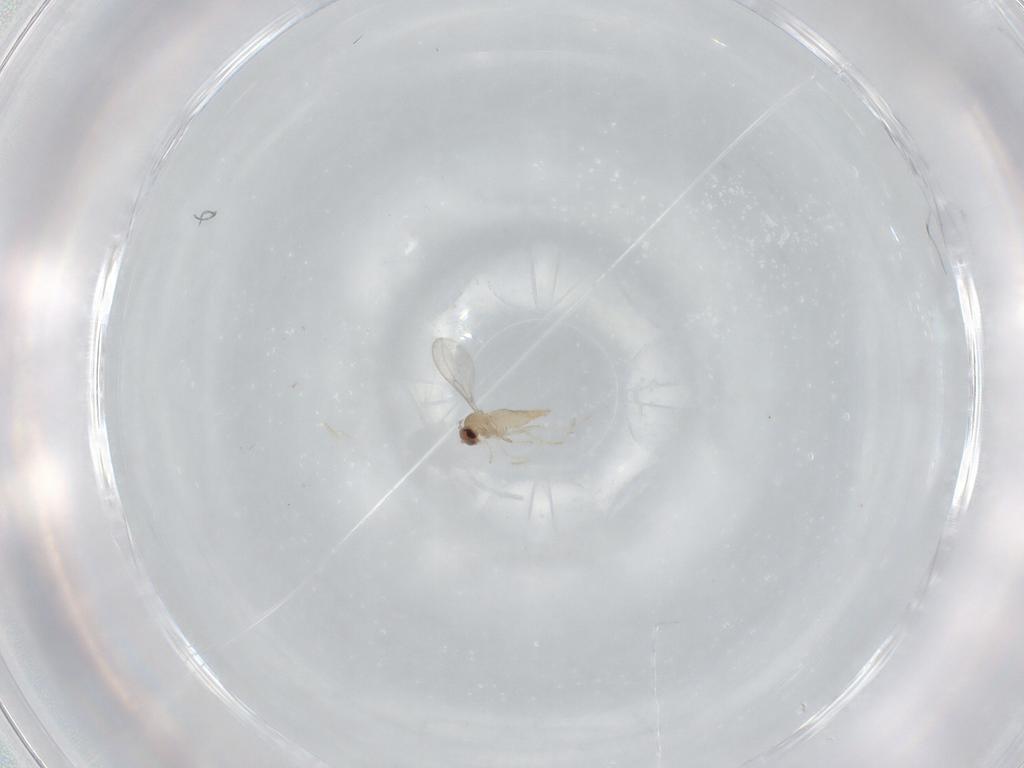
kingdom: Animalia
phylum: Arthropoda
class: Insecta
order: Diptera
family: Cecidomyiidae
